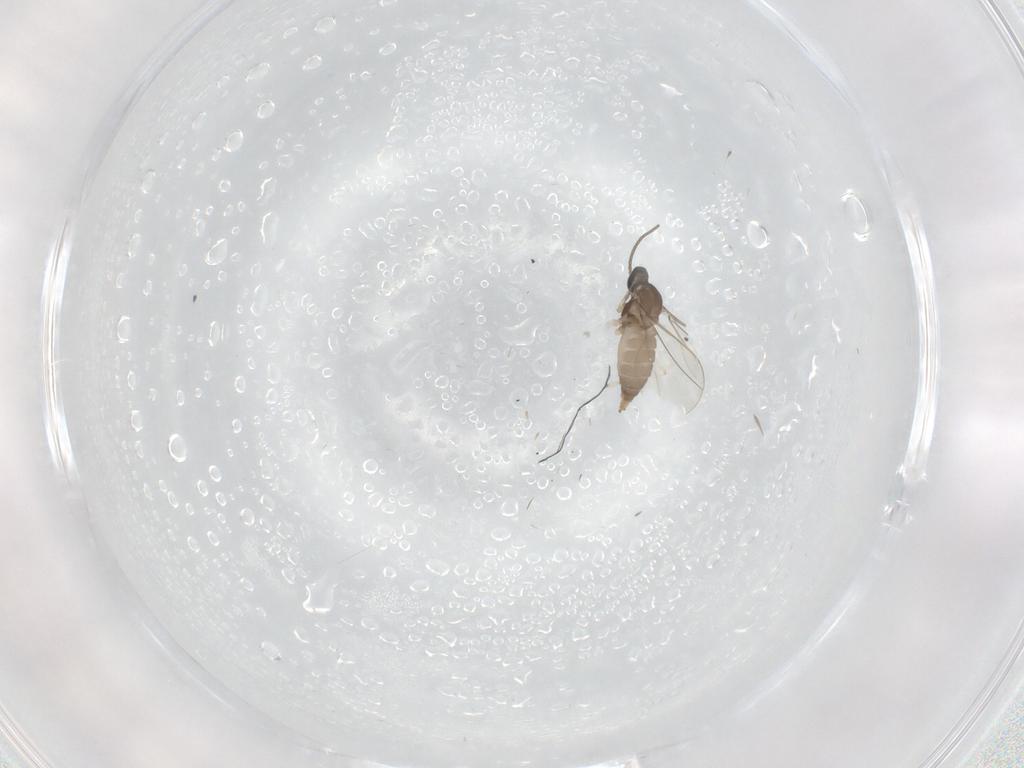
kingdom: Animalia
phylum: Arthropoda
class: Insecta
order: Diptera
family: Cecidomyiidae
